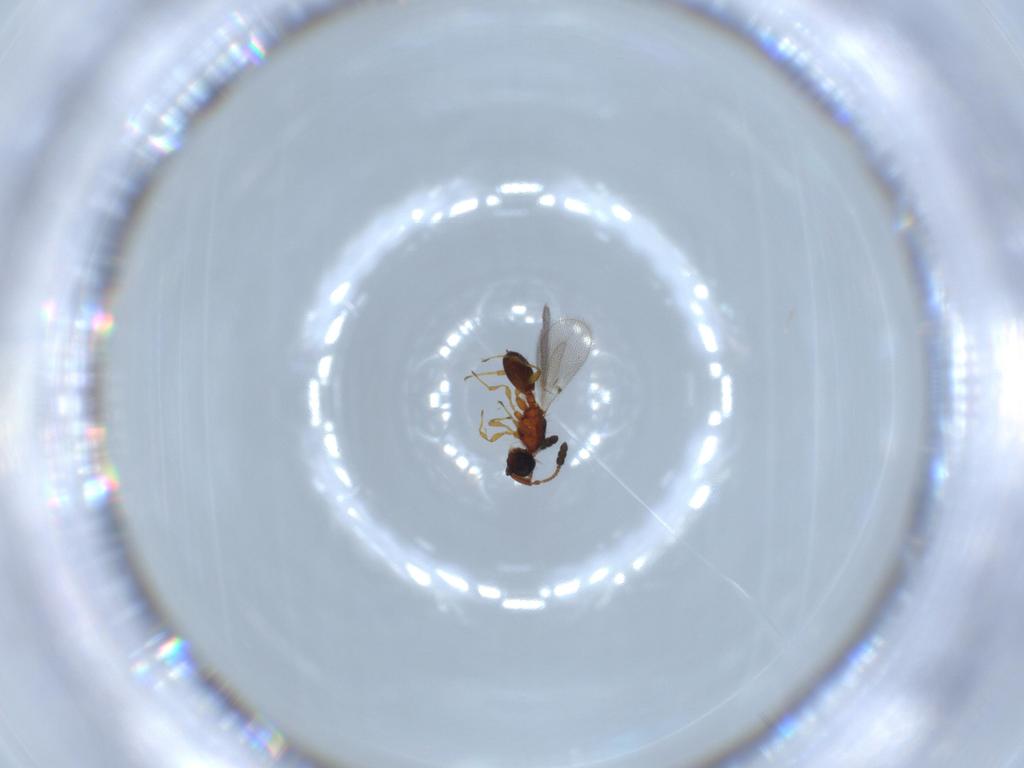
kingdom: Animalia
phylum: Arthropoda
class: Insecta
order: Hymenoptera
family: Diapriidae
